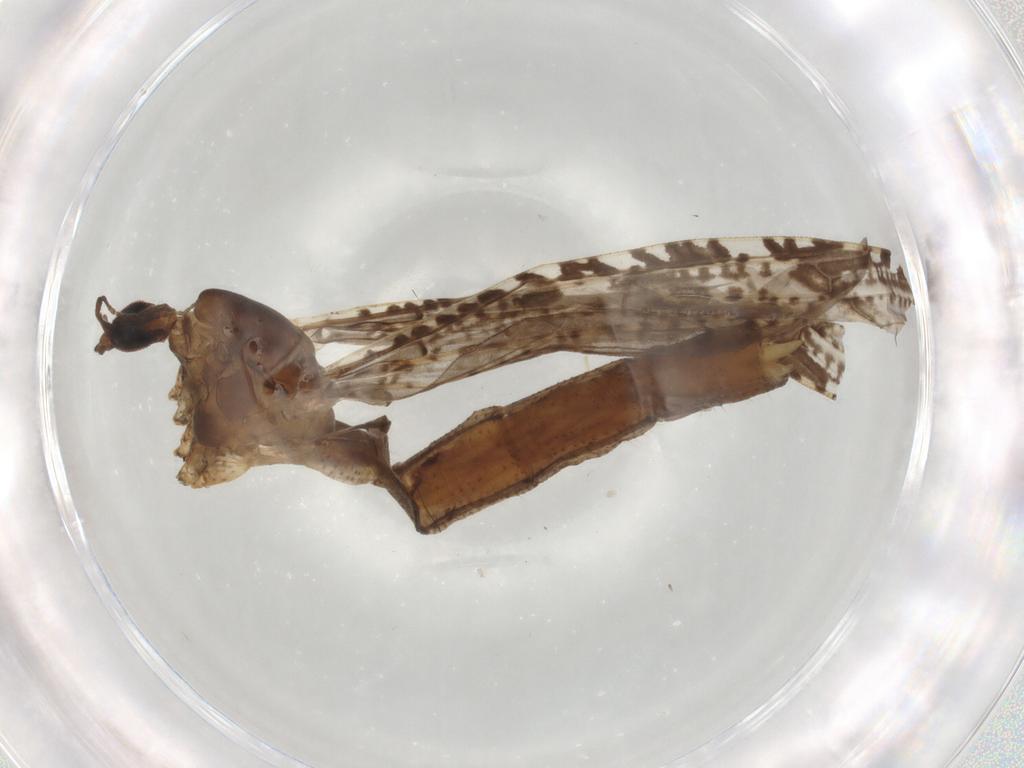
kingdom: Animalia
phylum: Arthropoda
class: Insecta
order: Diptera
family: Limoniidae
